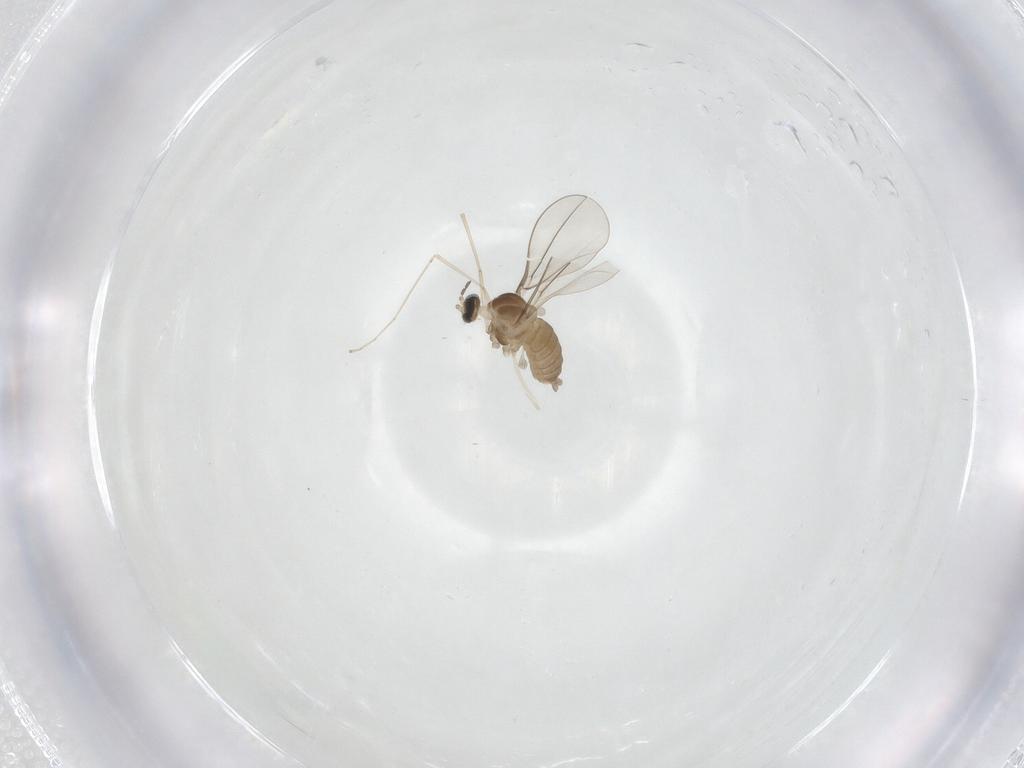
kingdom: Animalia
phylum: Arthropoda
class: Insecta
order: Diptera
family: Cecidomyiidae
